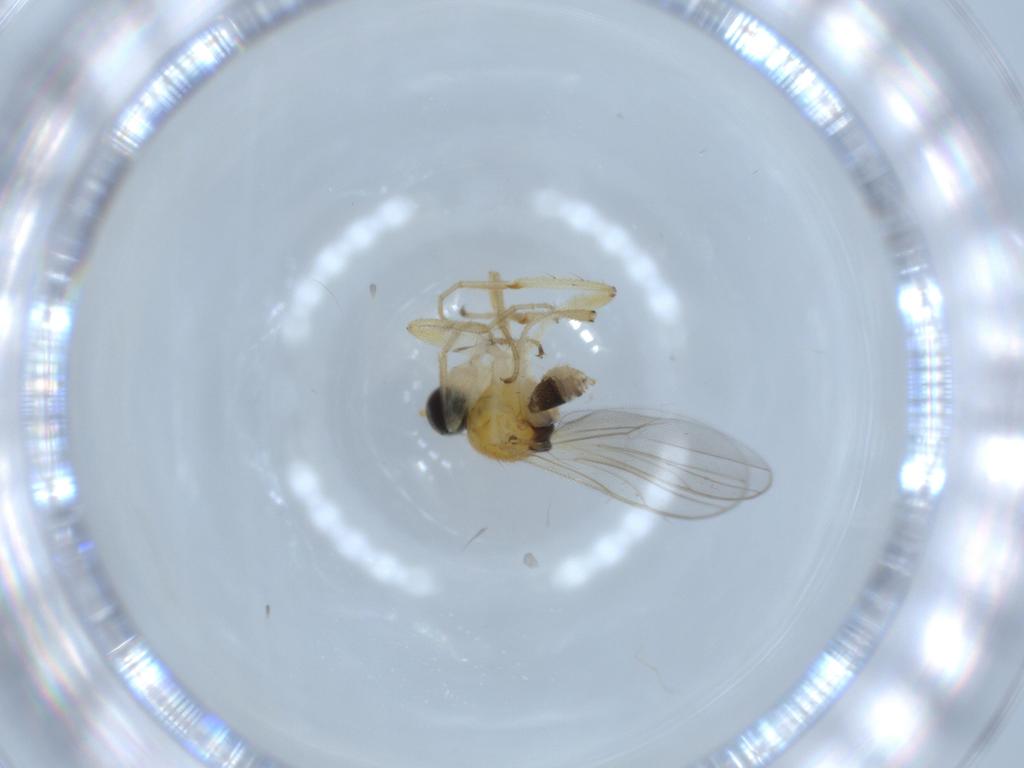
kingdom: Animalia
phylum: Arthropoda
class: Insecta
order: Diptera
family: Hybotidae
